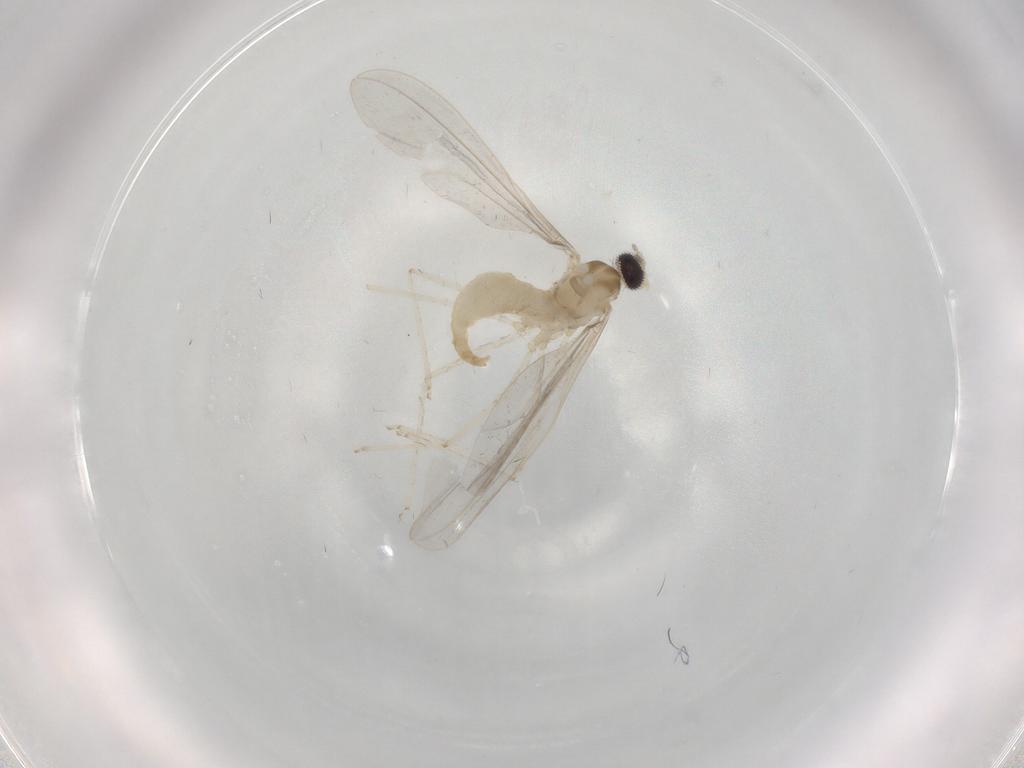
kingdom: Animalia
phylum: Arthropoda
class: Insecta
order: Diptera
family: Cecidomyiidae
